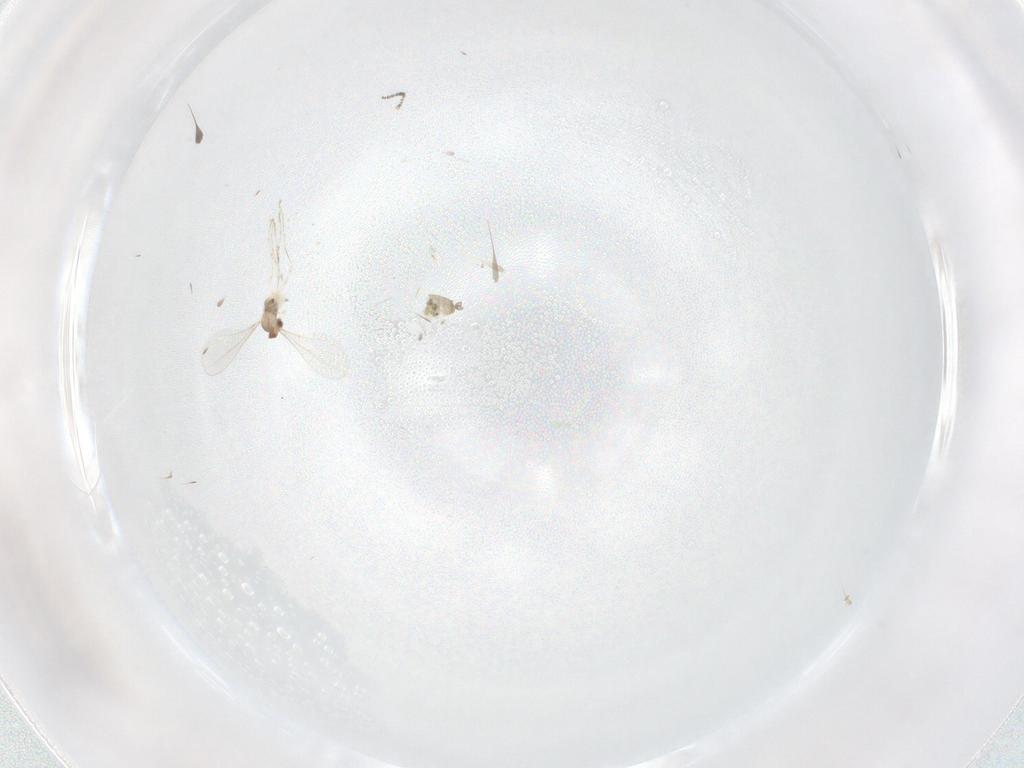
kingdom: Animalia
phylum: Arthropoda
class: Insecta
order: Diptera
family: Cecidomyiidae
